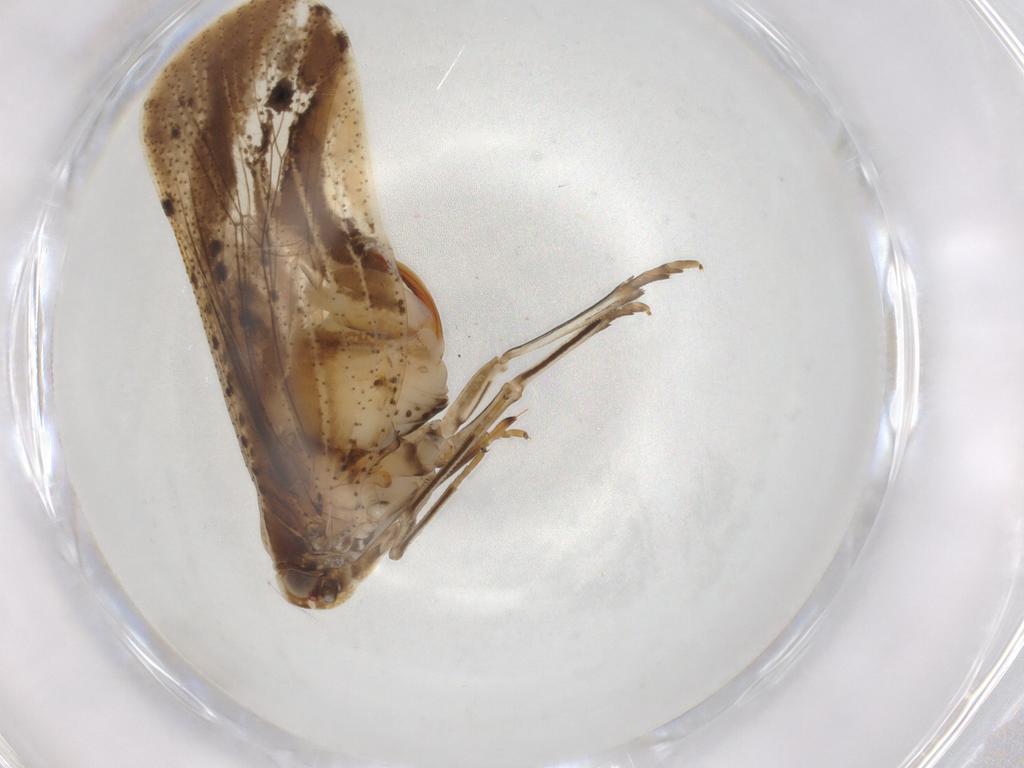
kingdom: Animalia
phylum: Arthropoda
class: Insecta
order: Hemiptera
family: Cixiidae
